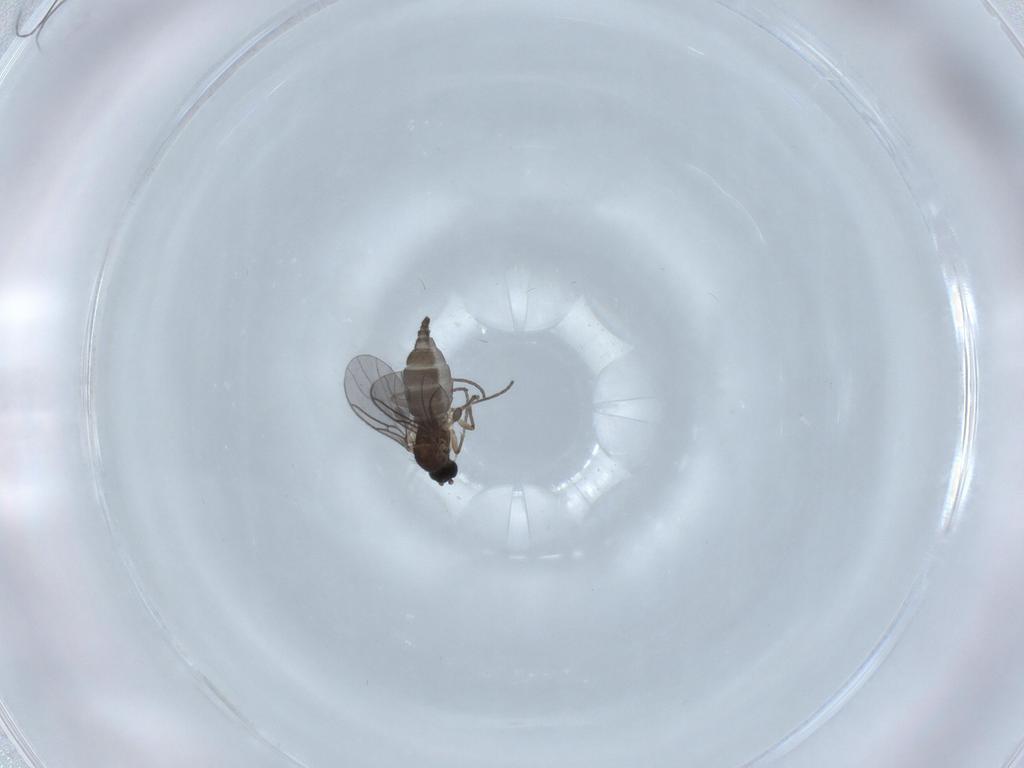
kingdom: Animalia
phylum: Arthropoda
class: Insecta
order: Diptera
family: Sciaridae
